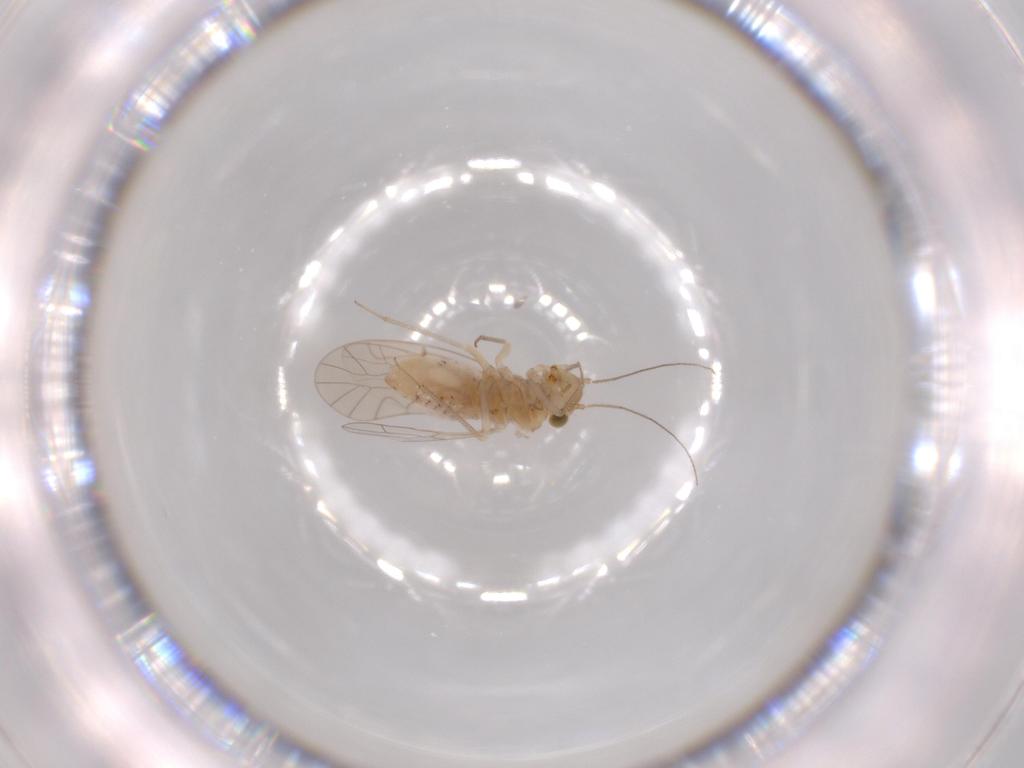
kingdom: Animalia
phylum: Arthropoda
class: Insecta
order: Psocodea
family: Lachesillidae
